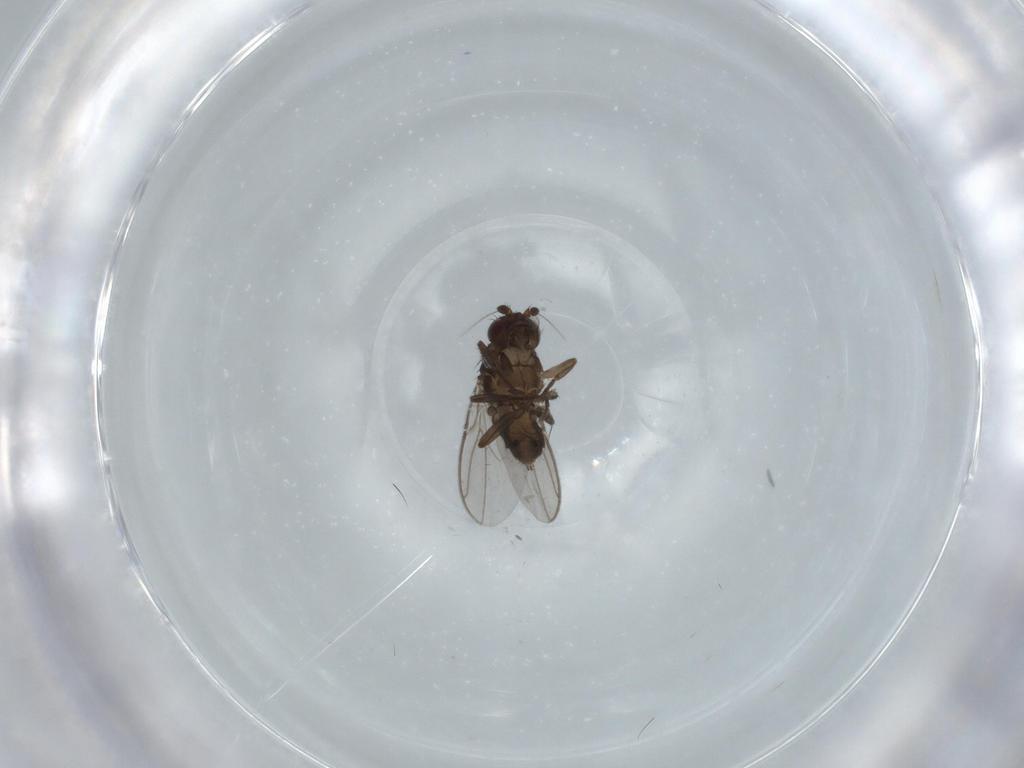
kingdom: Animalia
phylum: Arthropoda
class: Insecta
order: Diptera
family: Sphaeroceridae
